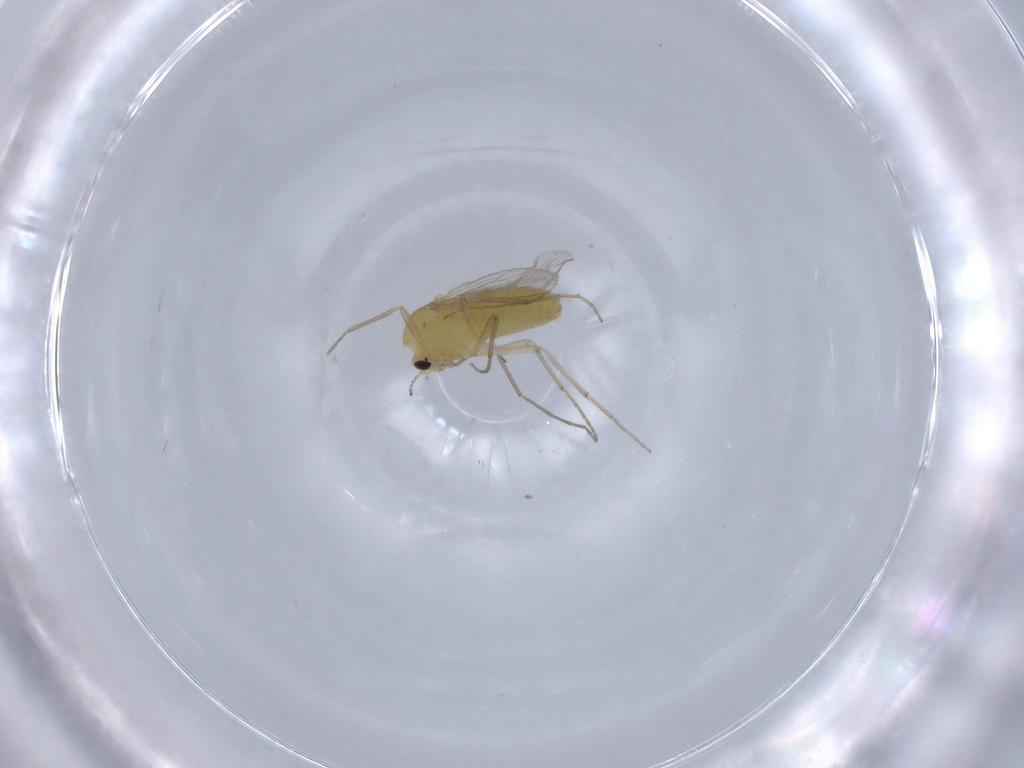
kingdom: Animalia
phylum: Arthropoda
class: Insecta
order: Diptera
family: Chironomidae
